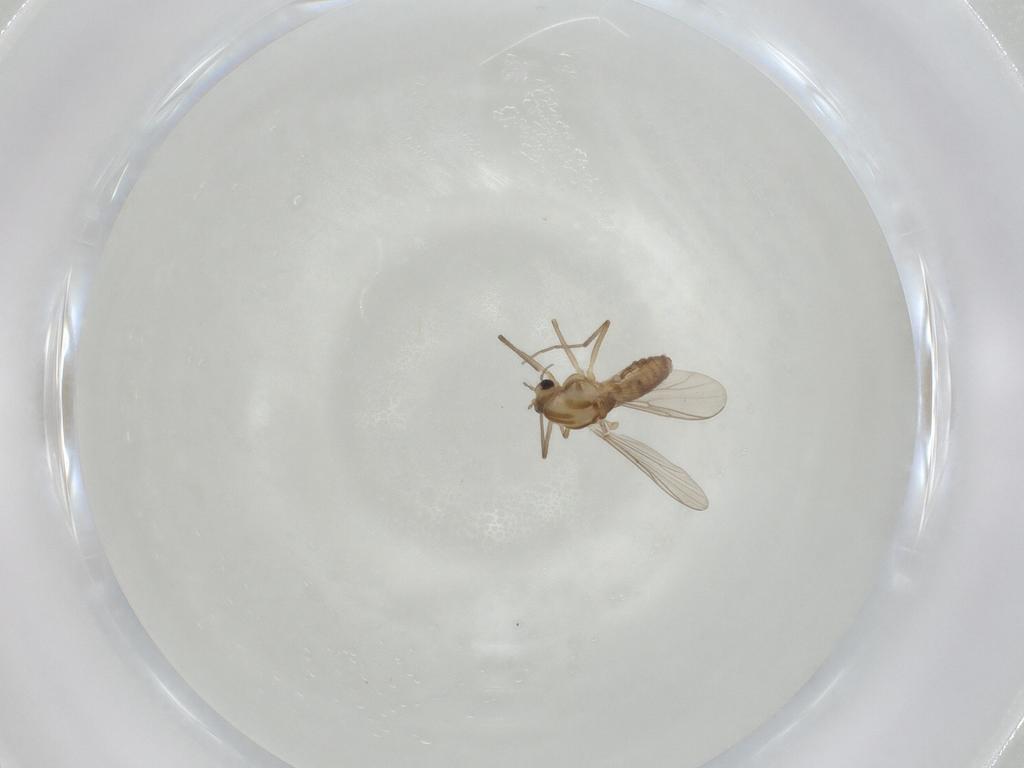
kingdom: Animalia
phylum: Arthropoda
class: Insecta
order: Diptera
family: Chironomidae
